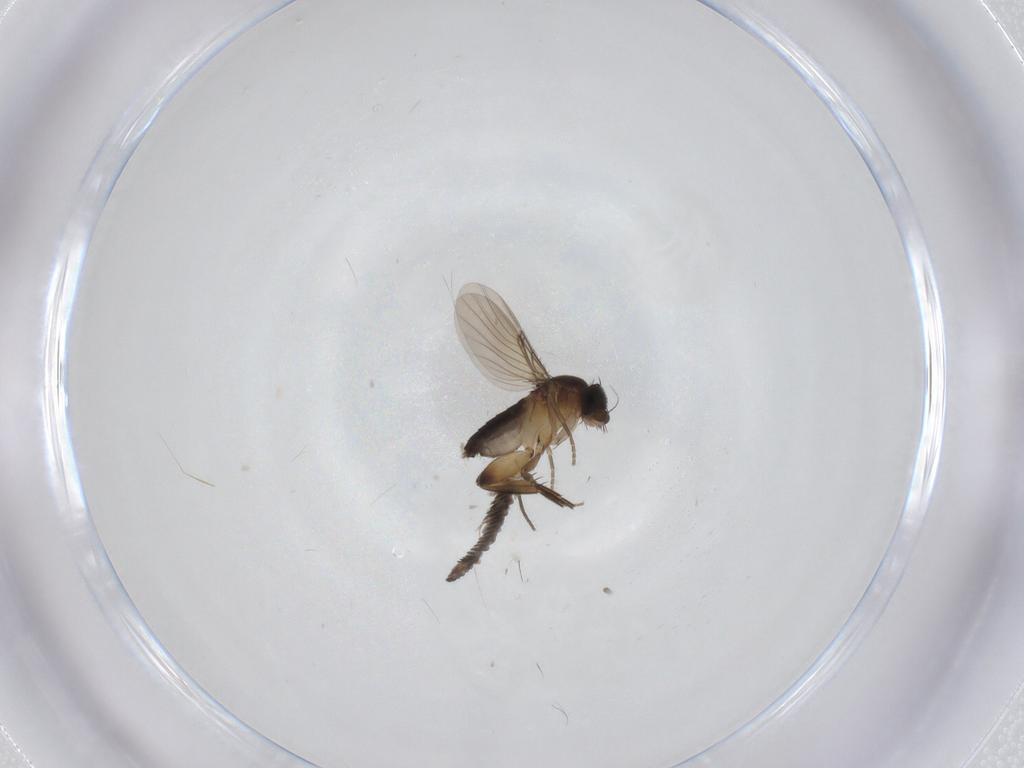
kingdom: Animalia
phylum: Arthropoda
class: Insecta
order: Diptera
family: Phoridae
